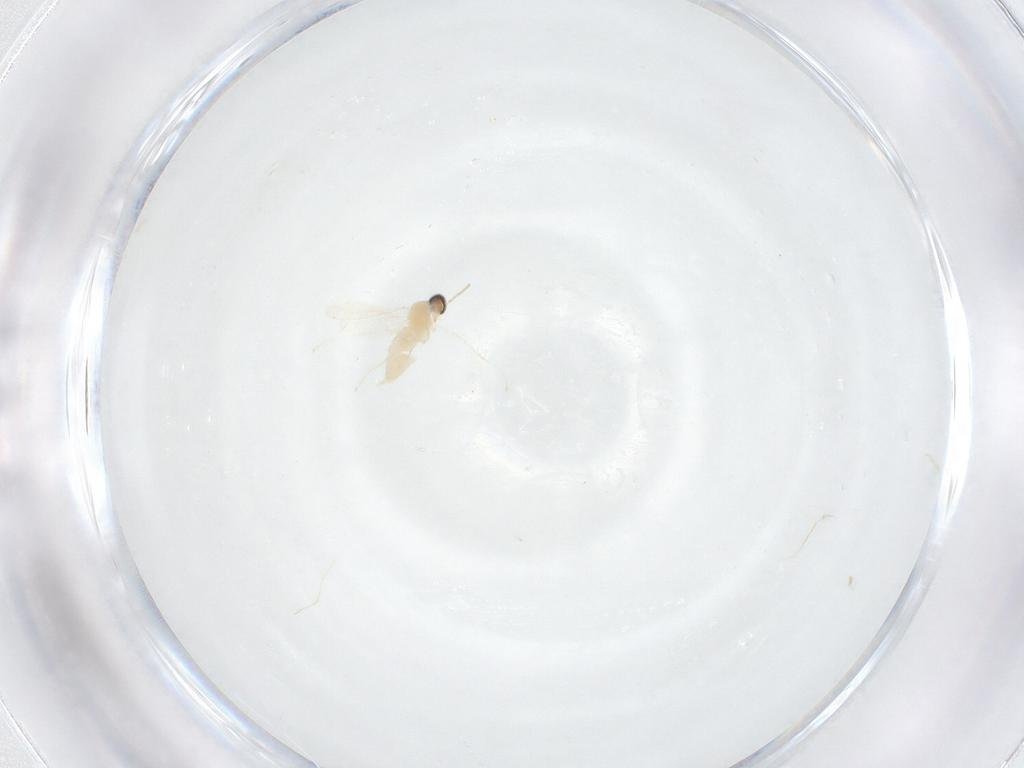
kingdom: Animalia
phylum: Arthropoda
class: Insecta
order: Diptera
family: Cecidomyiidae
